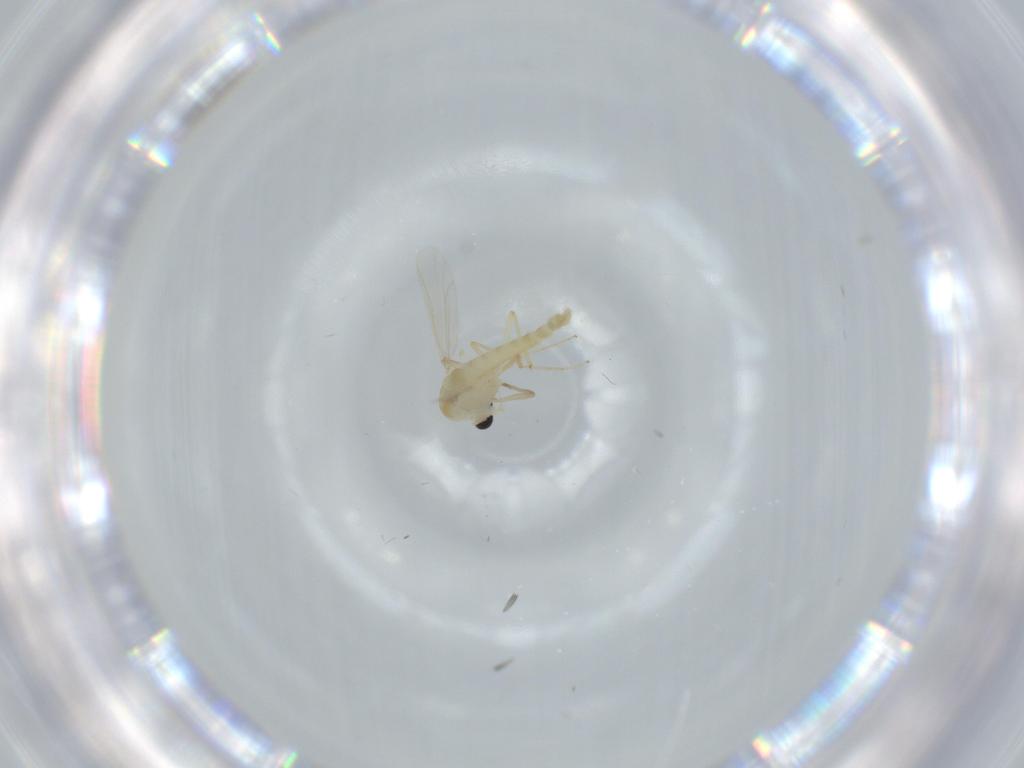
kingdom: Animalia
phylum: Arthropoda
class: Insecta
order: Diptera
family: Chironomidae
